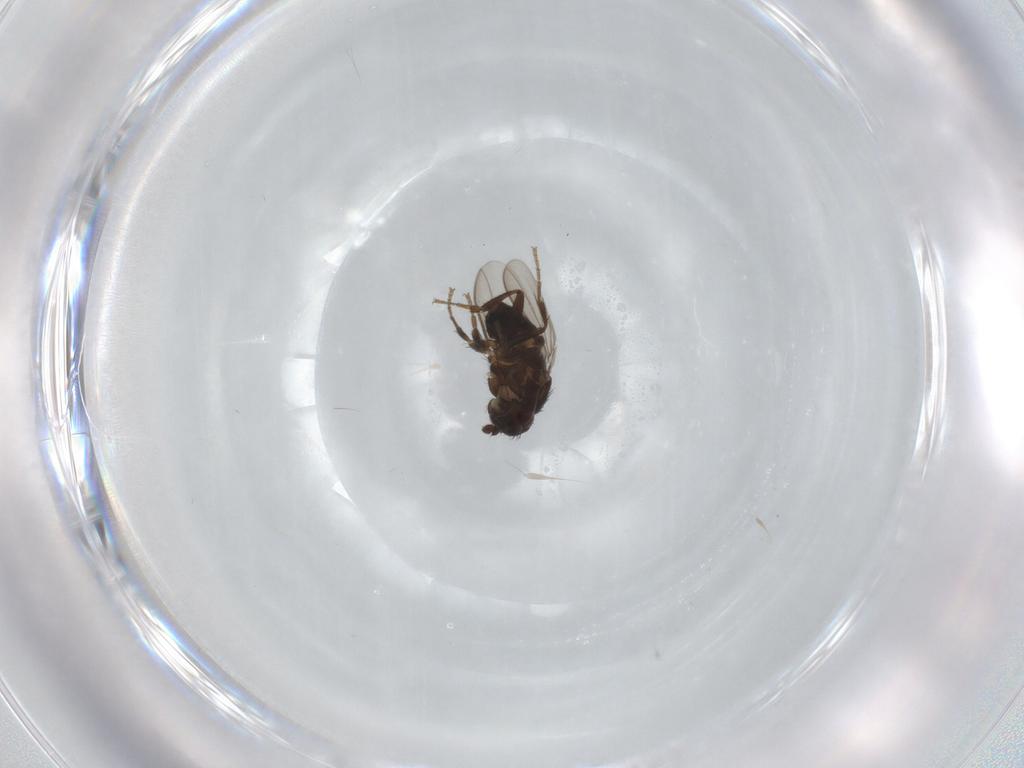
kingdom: Animalia
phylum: Arthropoda
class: Insecta
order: Diptera
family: Sphaeroceridae
